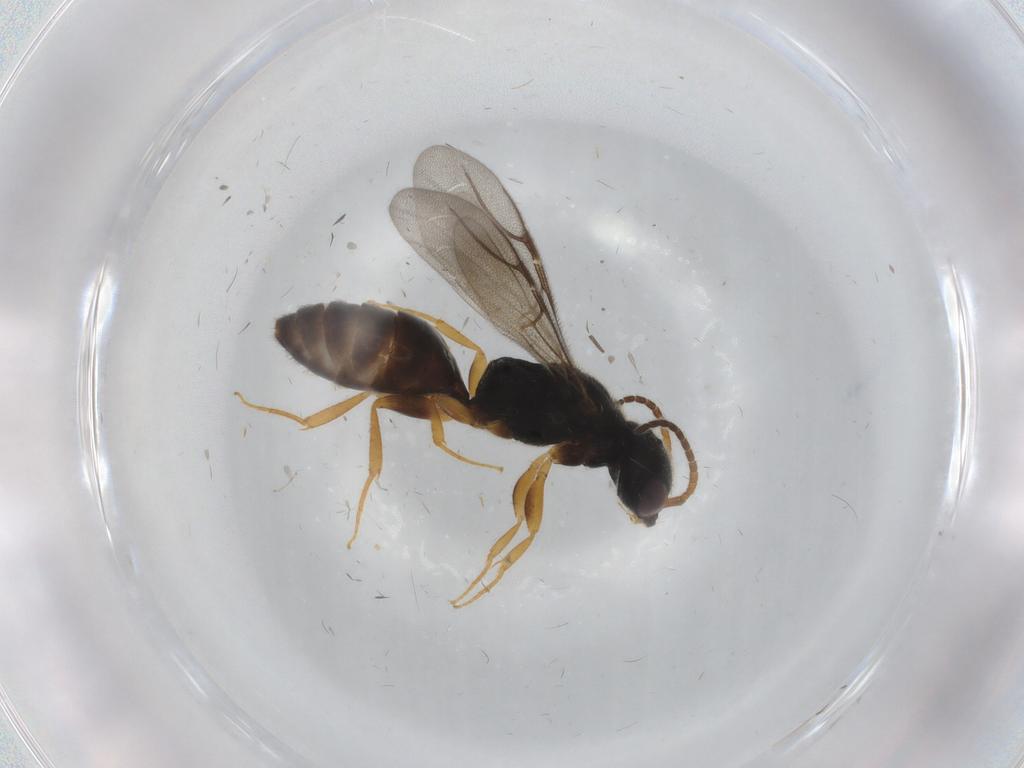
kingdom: Animalia
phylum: Arthropoda
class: Insecta
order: Hymenoptera
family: Bethylidae
